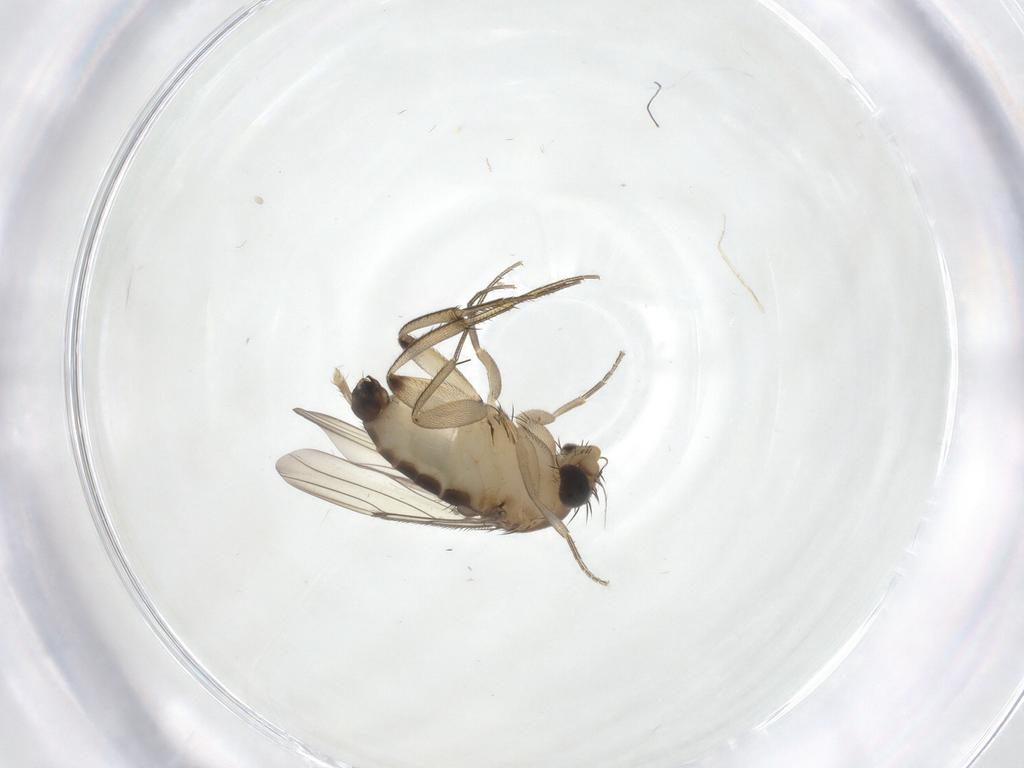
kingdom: Animalia
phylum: Arthropoda
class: Insecta
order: Diptera
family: Phoridae
